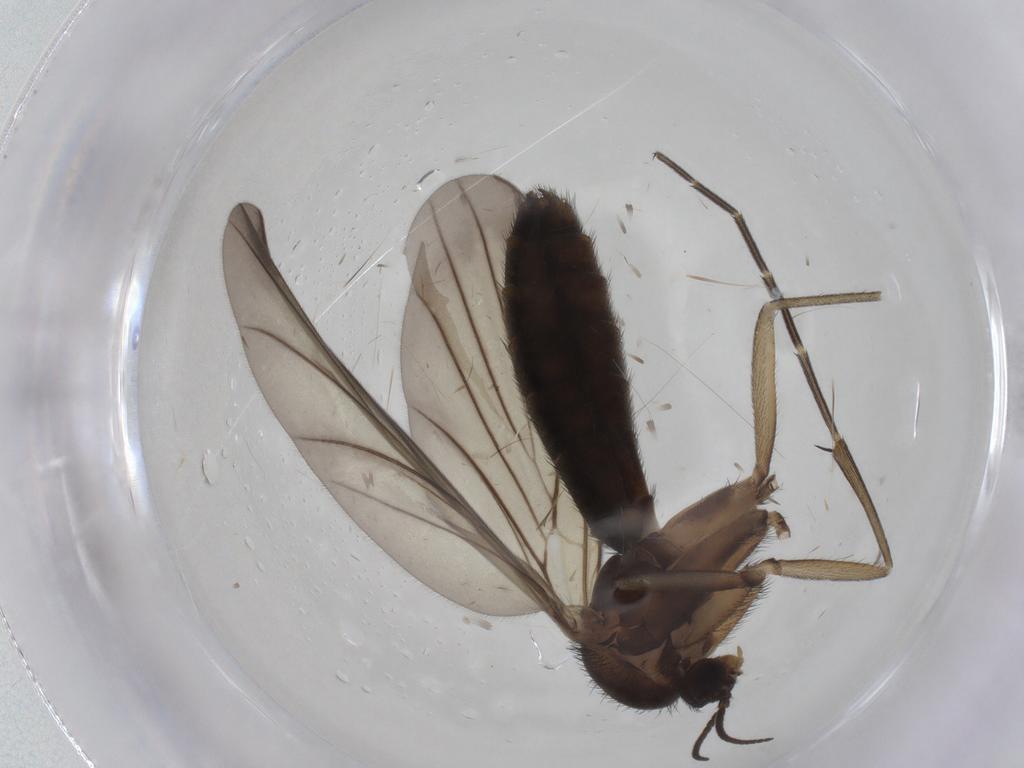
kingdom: Animalia
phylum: Arthropoda
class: Insecta
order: Diptera
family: Keroplatidae
